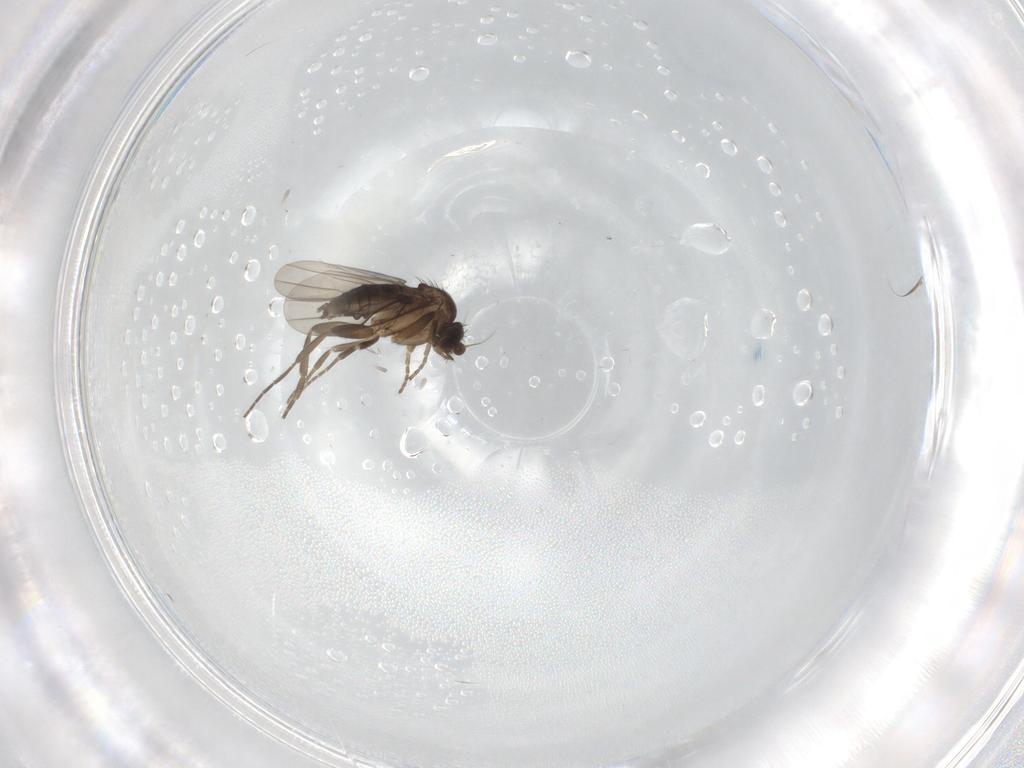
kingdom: Animalia
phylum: Arthropoda
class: Insecta
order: Diptera
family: Phoridae
